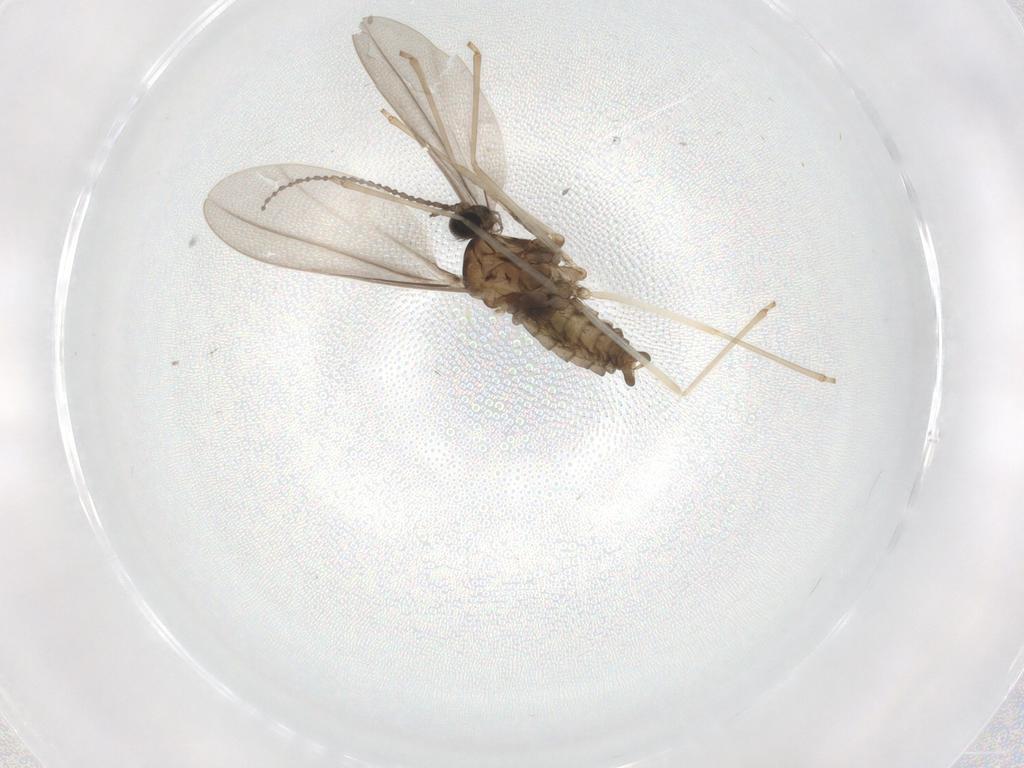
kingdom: Animalia
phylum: Arthropoda
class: Insecta
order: Diptera
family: Cecidomyiidae
